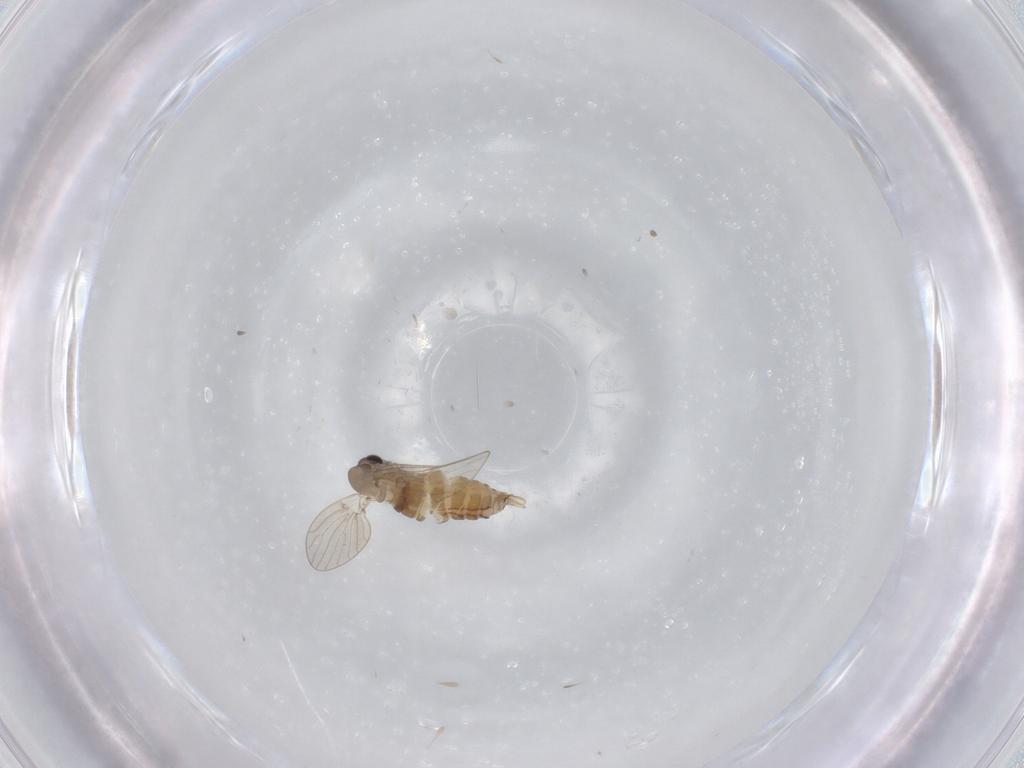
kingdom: Animalia
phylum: Arthropoda
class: Insecta
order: Diptera
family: Psychodidae
